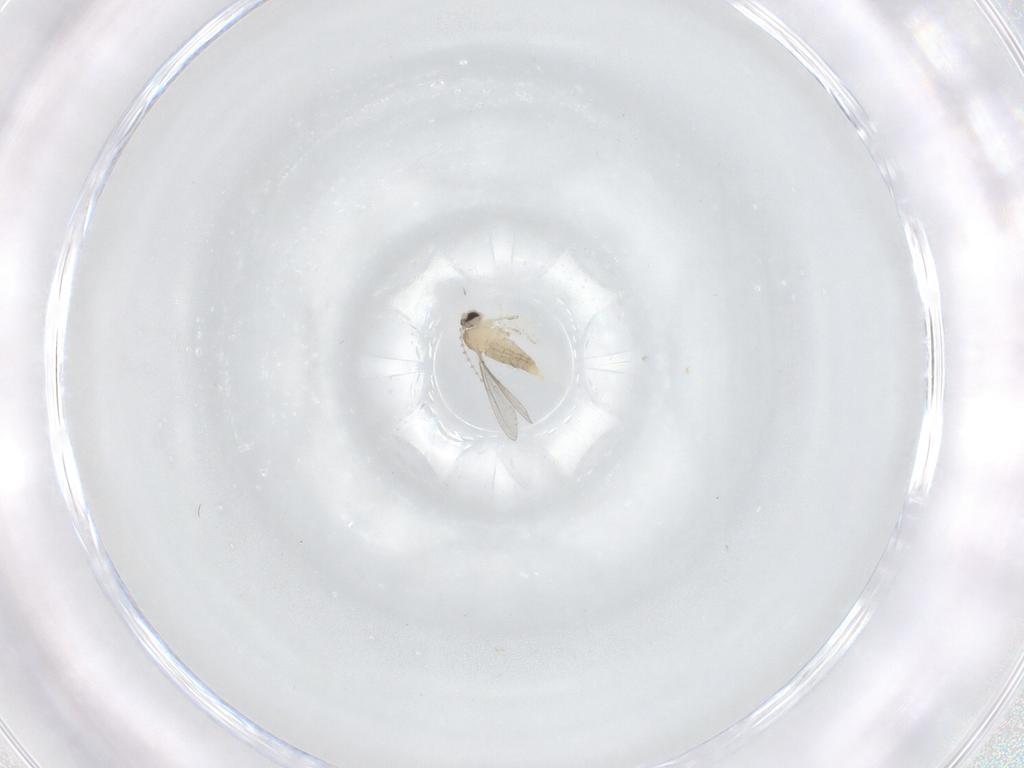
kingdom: Animalia
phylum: Arthropoda
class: Insecta
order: Diptera
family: Cecidomyiidae
